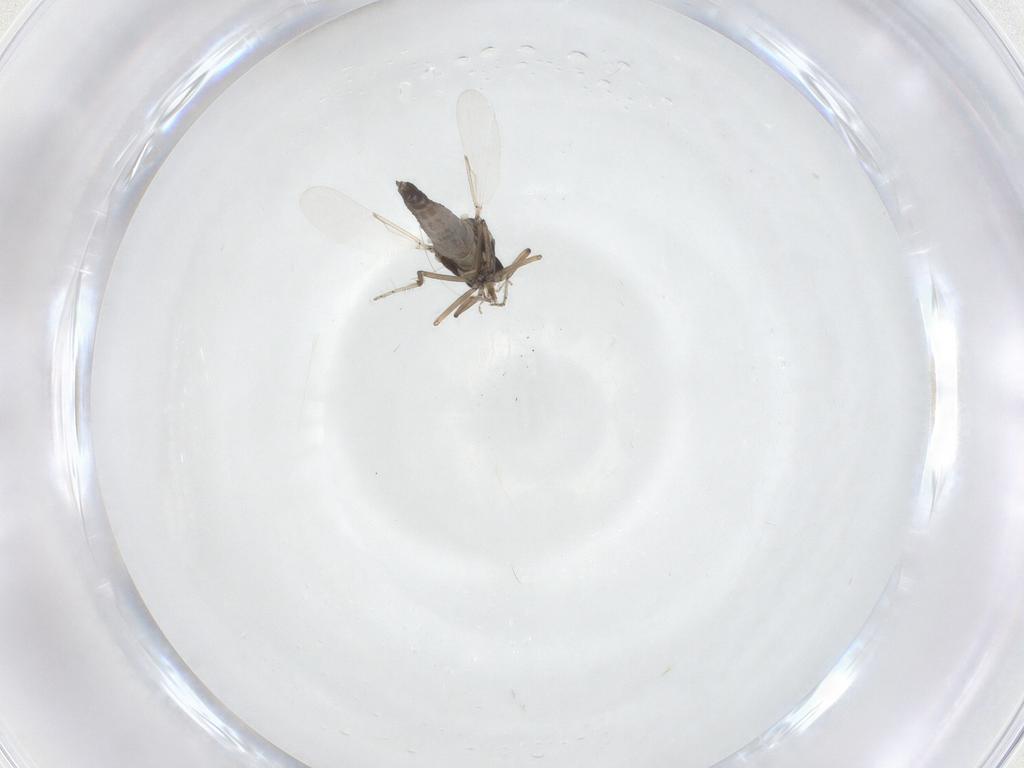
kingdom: Animalia
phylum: Arthropoda
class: Insecta
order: Diptera
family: Ceratopogonidae
